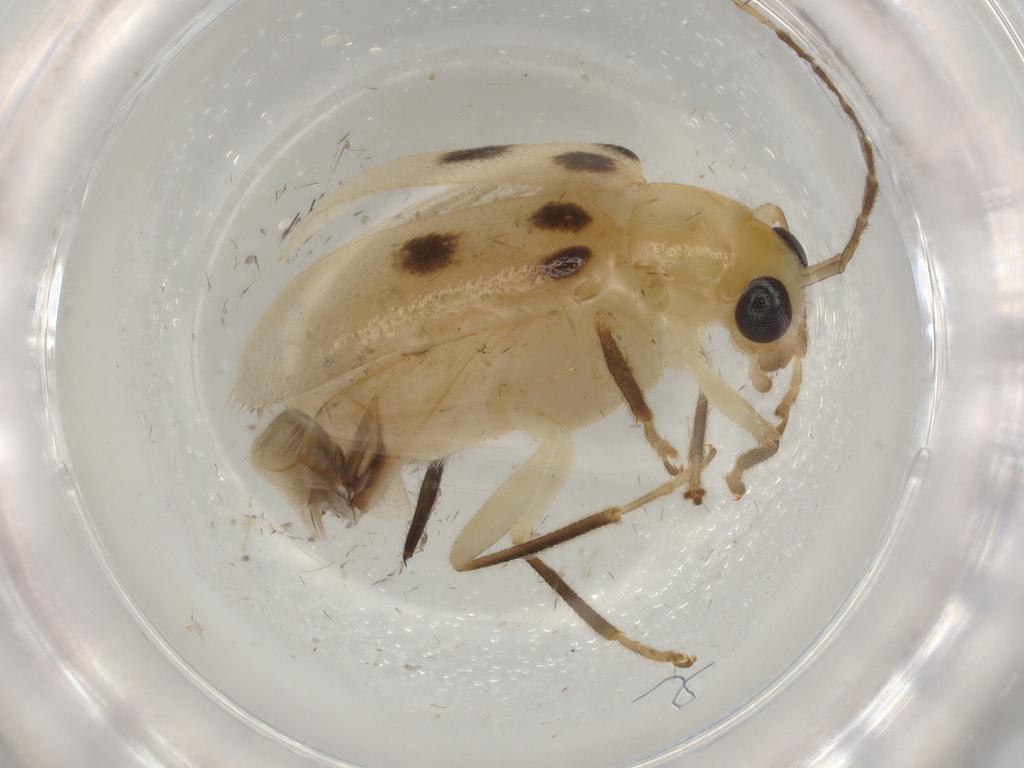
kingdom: Animalia
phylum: Arthropoda
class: Insecta
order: Coleoptera
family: Chrysomelidae
